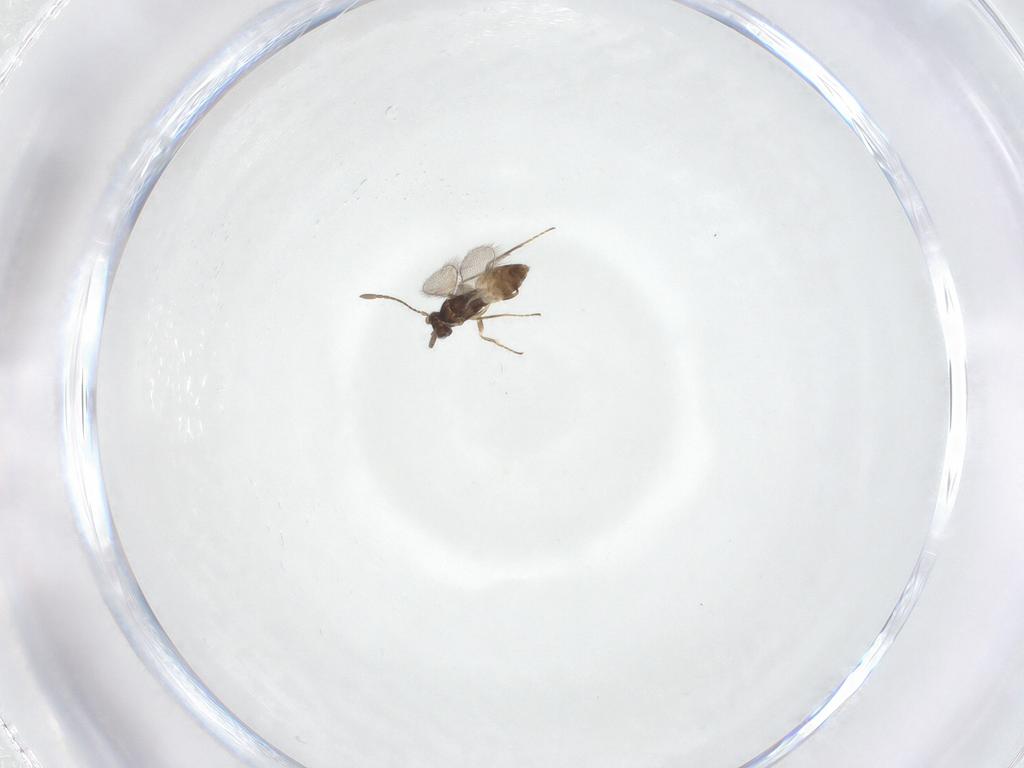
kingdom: Animalia
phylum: Arthropoda
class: Insecta
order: Hymenoptera
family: Mymaridae
